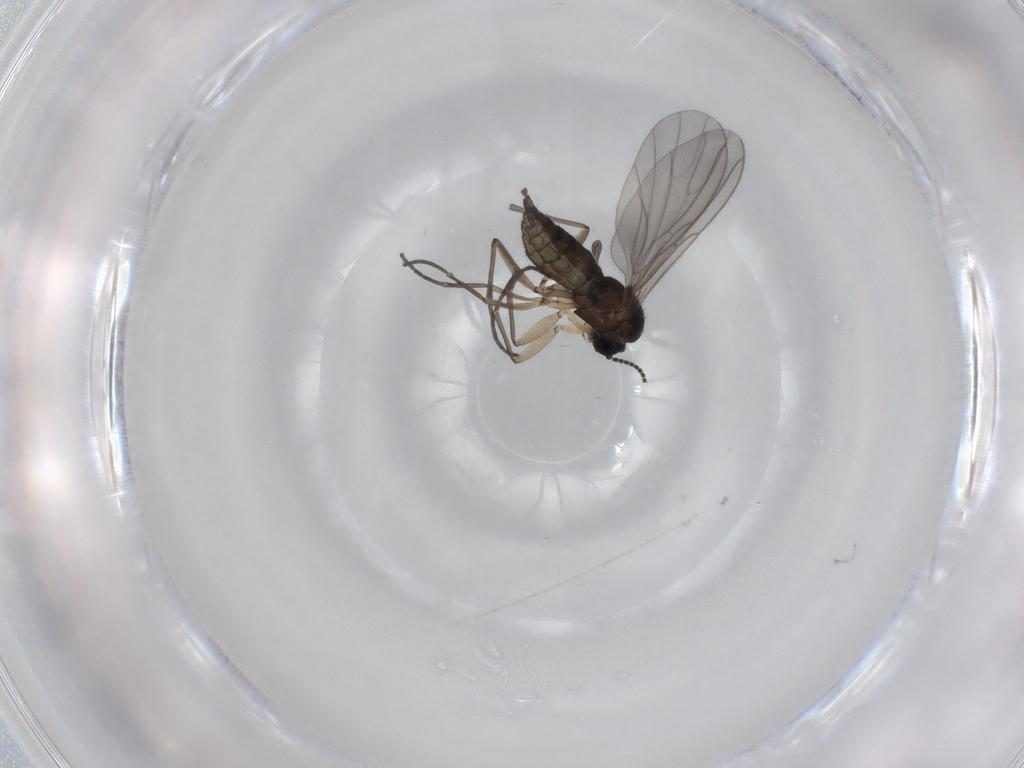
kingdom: Animalia
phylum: Arthropoda
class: Insecta
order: Diptera
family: Sciaridae
